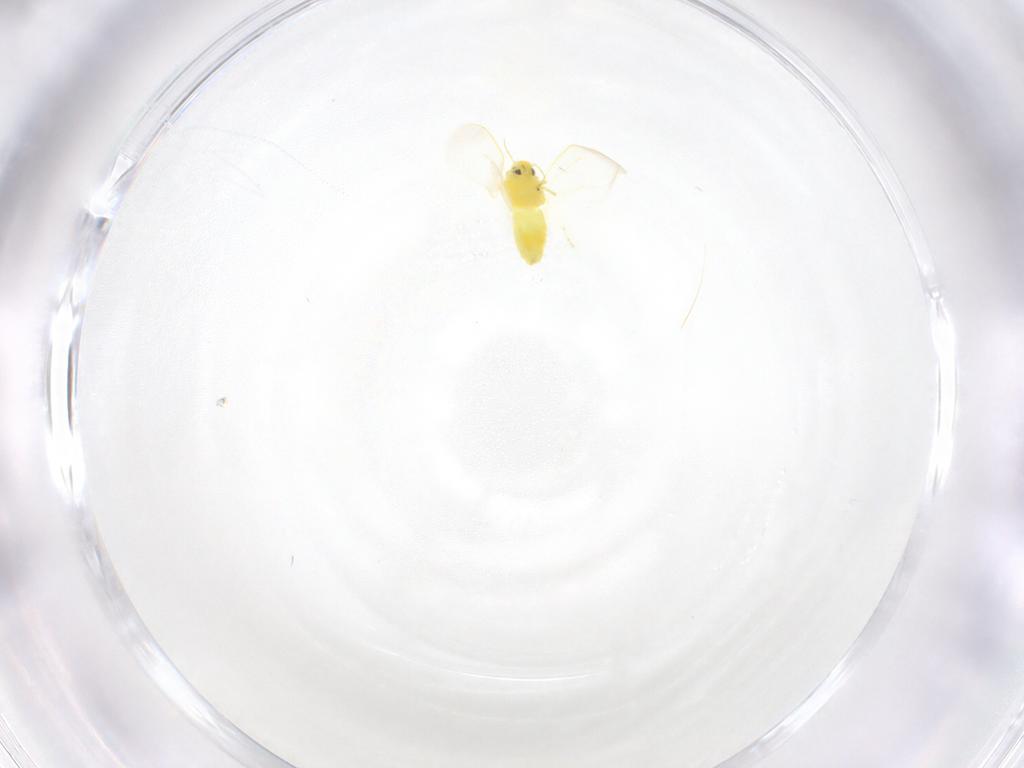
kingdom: Animalia
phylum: Arthropoda
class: Insecta
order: Hemiptera
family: Aleyrodidae
